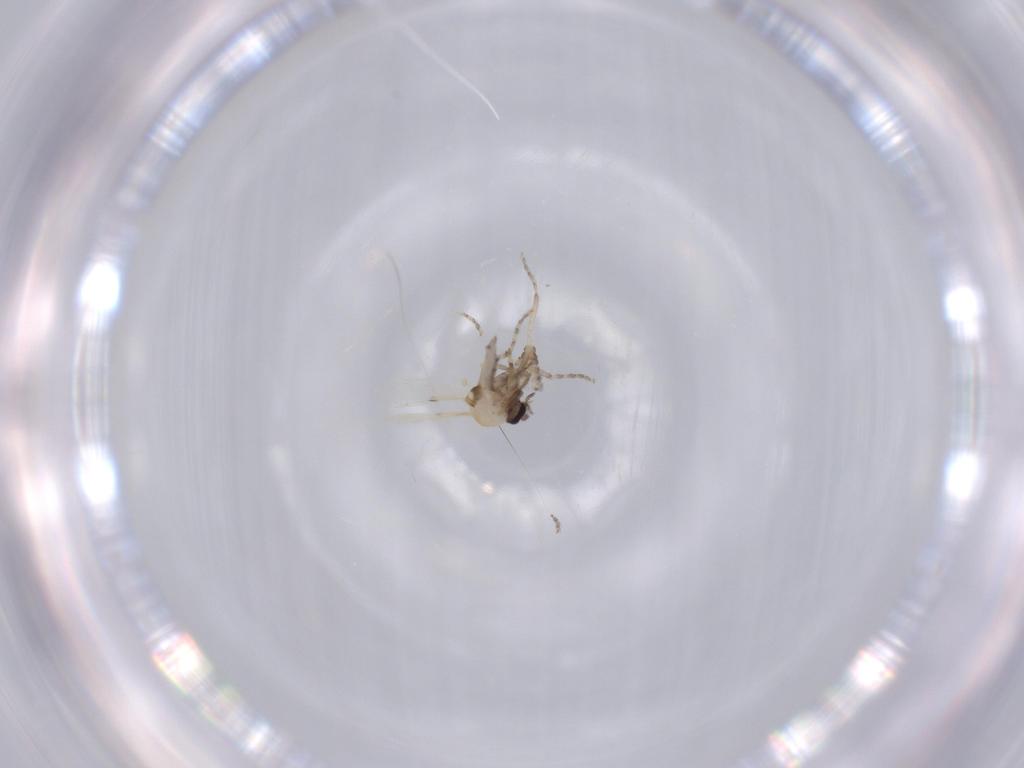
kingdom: Animalia
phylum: Arthropoda
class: Insecta
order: Diptera
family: Ceratopogonidae
